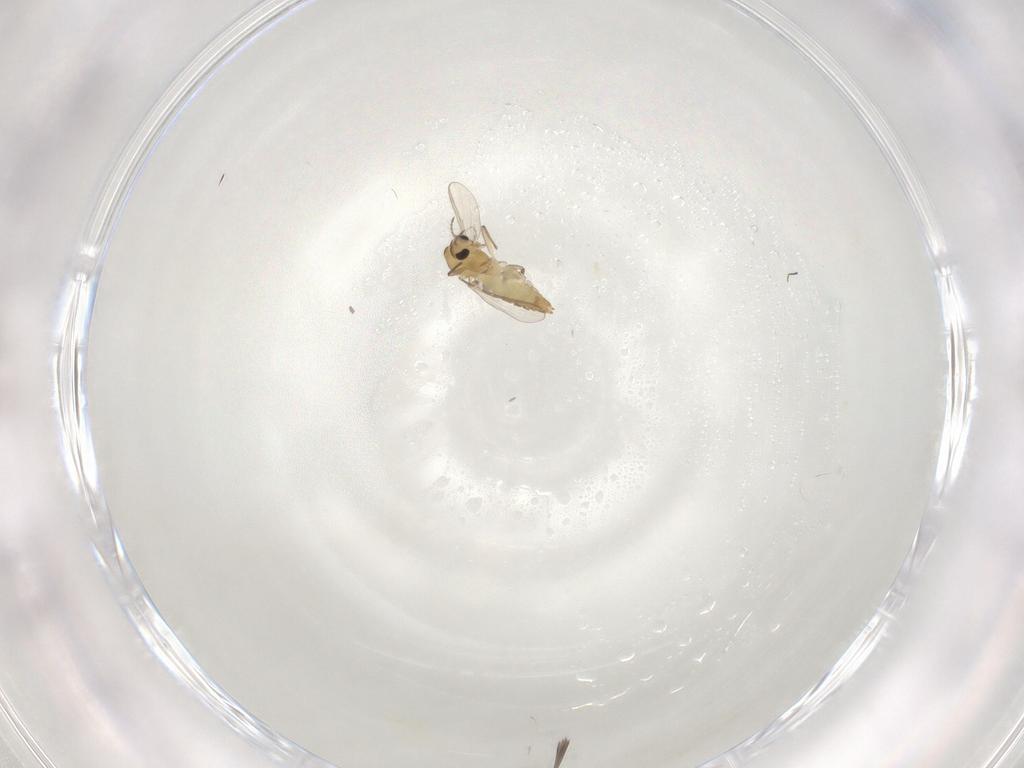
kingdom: Animalia
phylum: Arthropoda
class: Insecta
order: Diptera
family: Chironomidae
